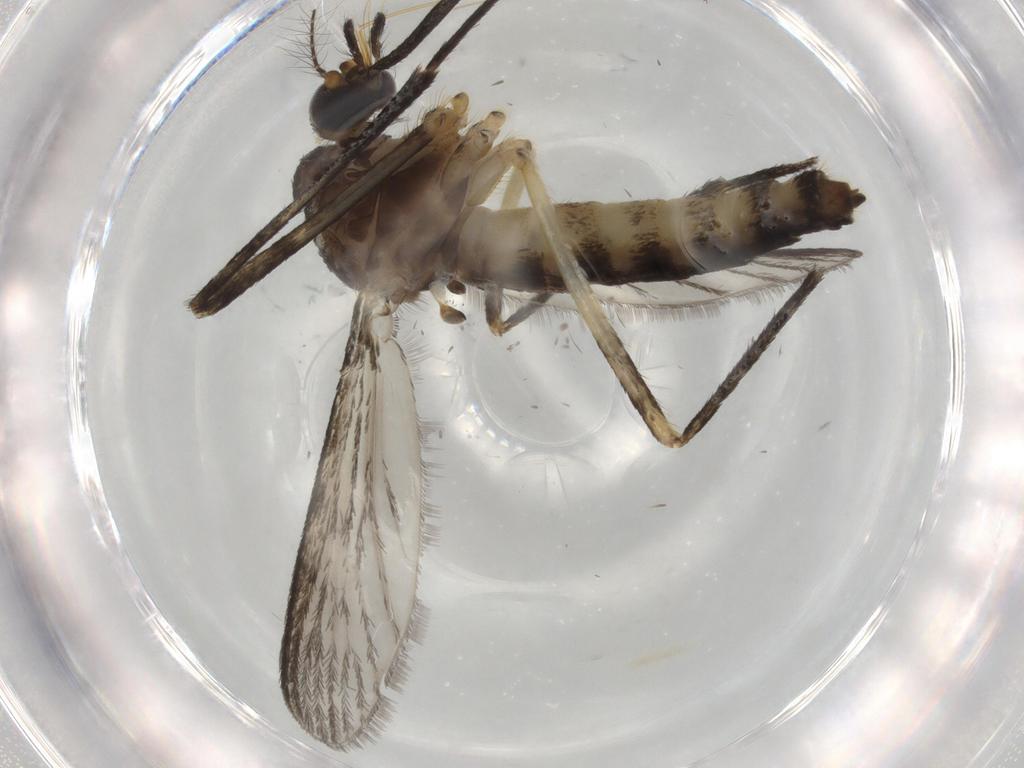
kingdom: Animalia
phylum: Arthropoda
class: Insecta
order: Diptera
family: Culicidae
